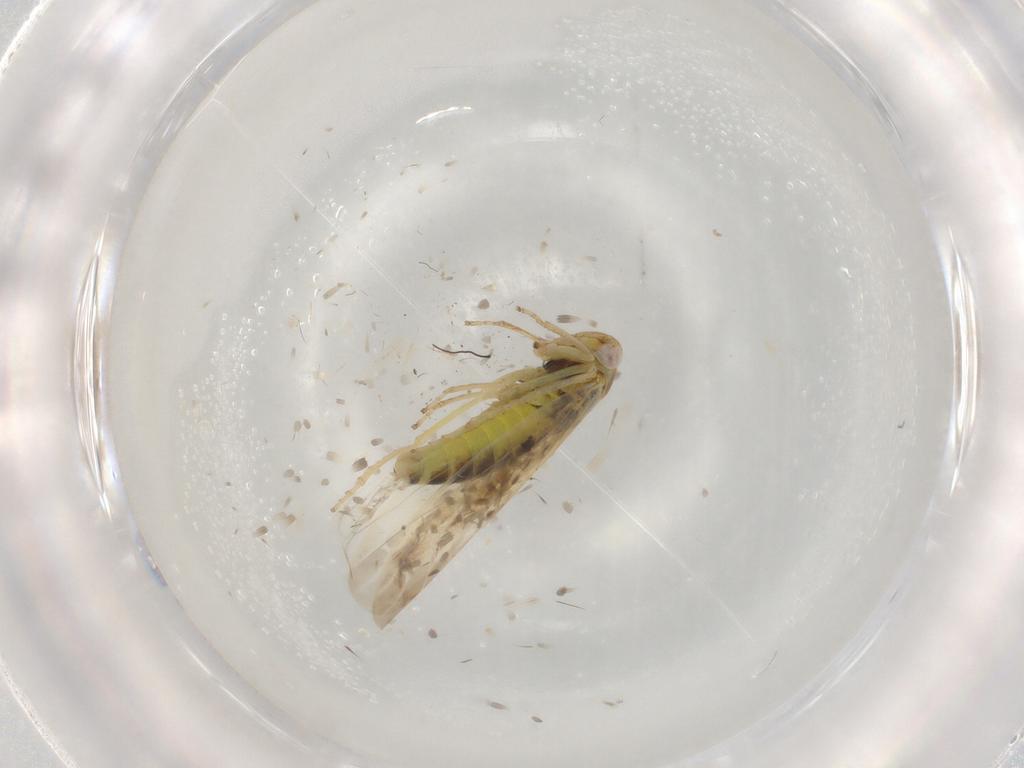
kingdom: Animalia
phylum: Arthropoda
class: Insecta
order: Hemiptera
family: Cicadellidae
